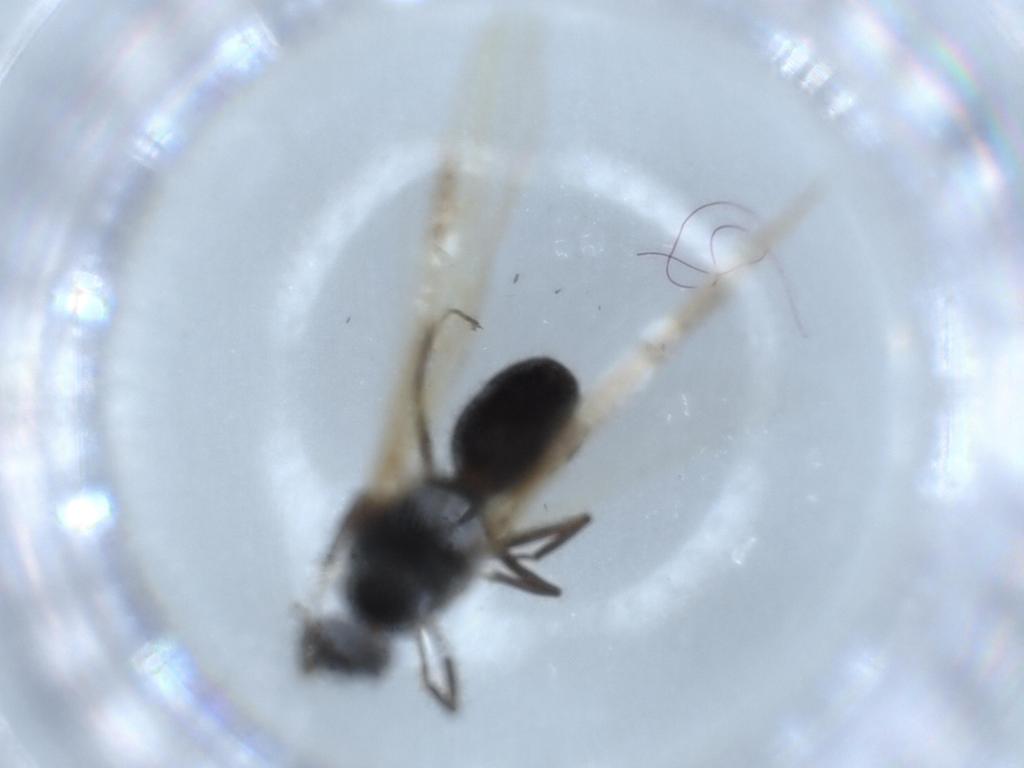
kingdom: Animalia
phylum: Arthropoda
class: Insecta
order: Hymenoptera
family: Formicidae
